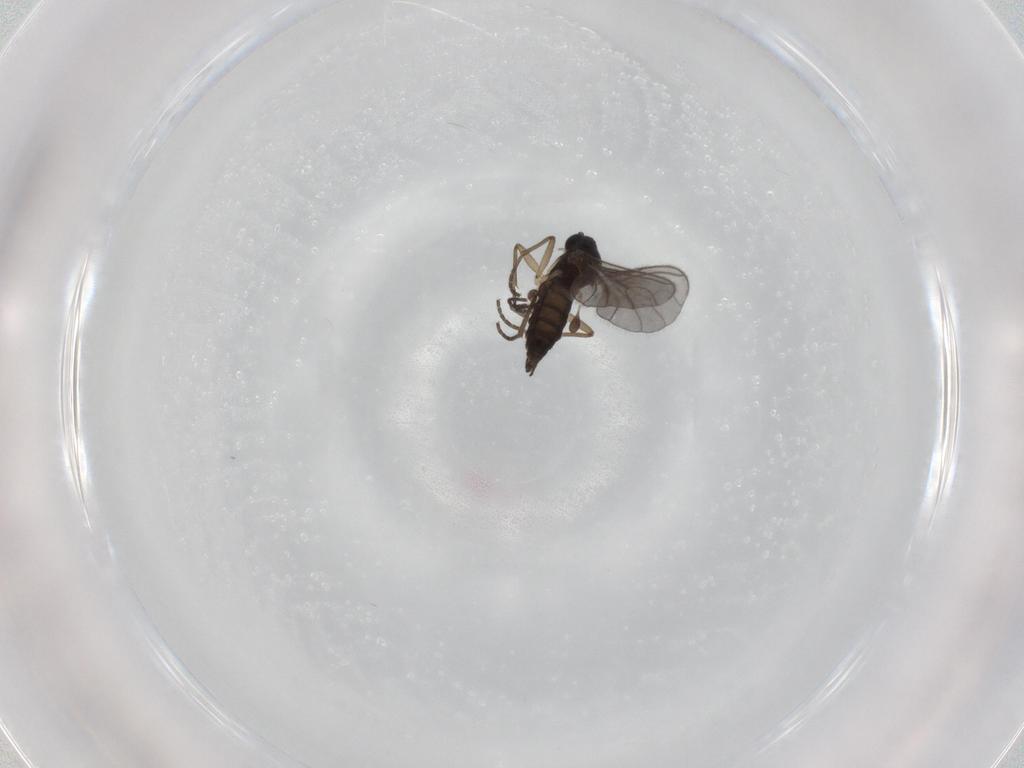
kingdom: Animalia
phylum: Arthropoda
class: Insecta
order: Diptera
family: Sciaridae
